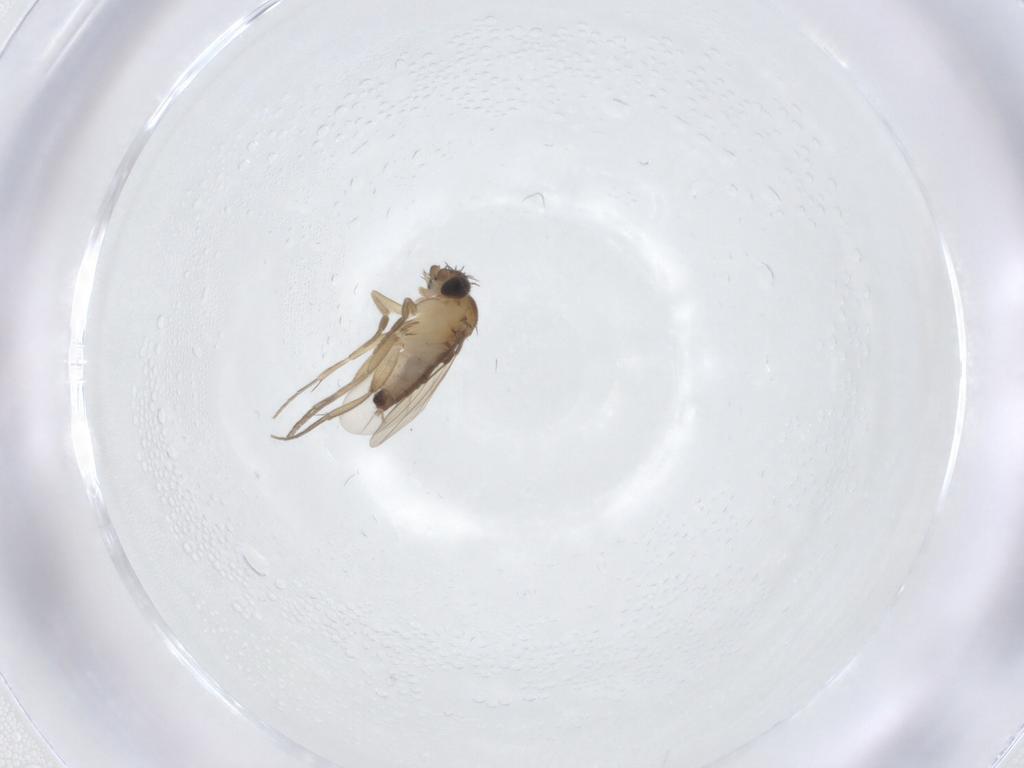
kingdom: Animalia
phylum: Arthropoda
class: Insecta
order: Diptera
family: Phoridae
